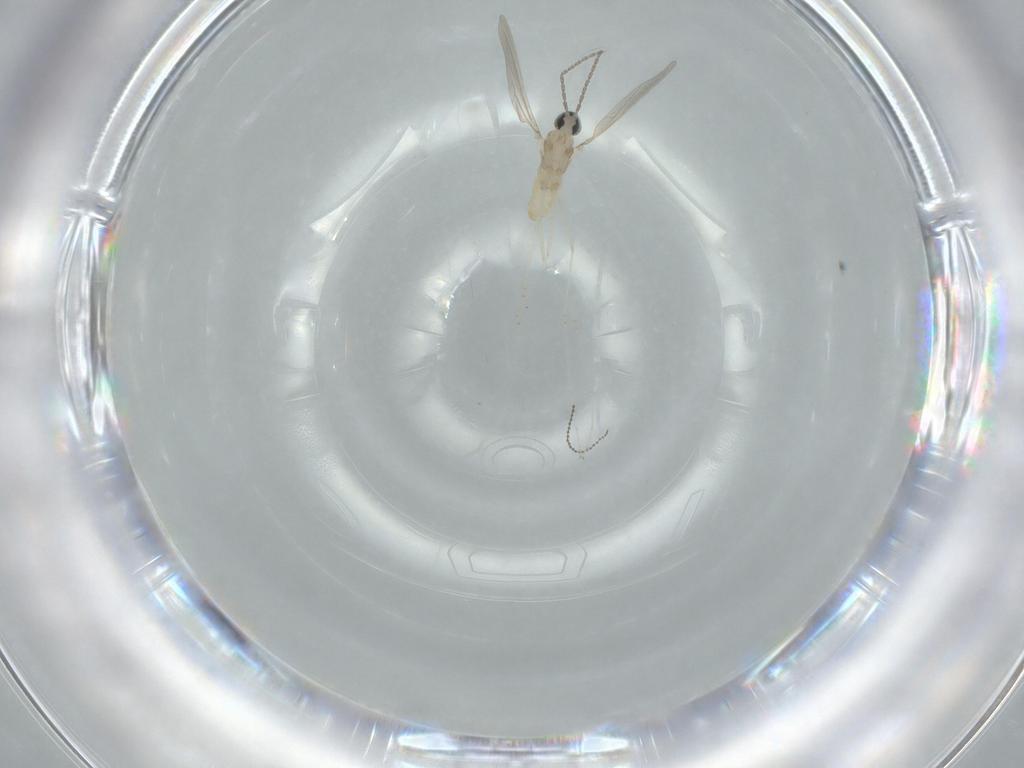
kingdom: Animalia
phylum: Arthropoda
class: Insecta
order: Diptera
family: Cecidomyiidae
